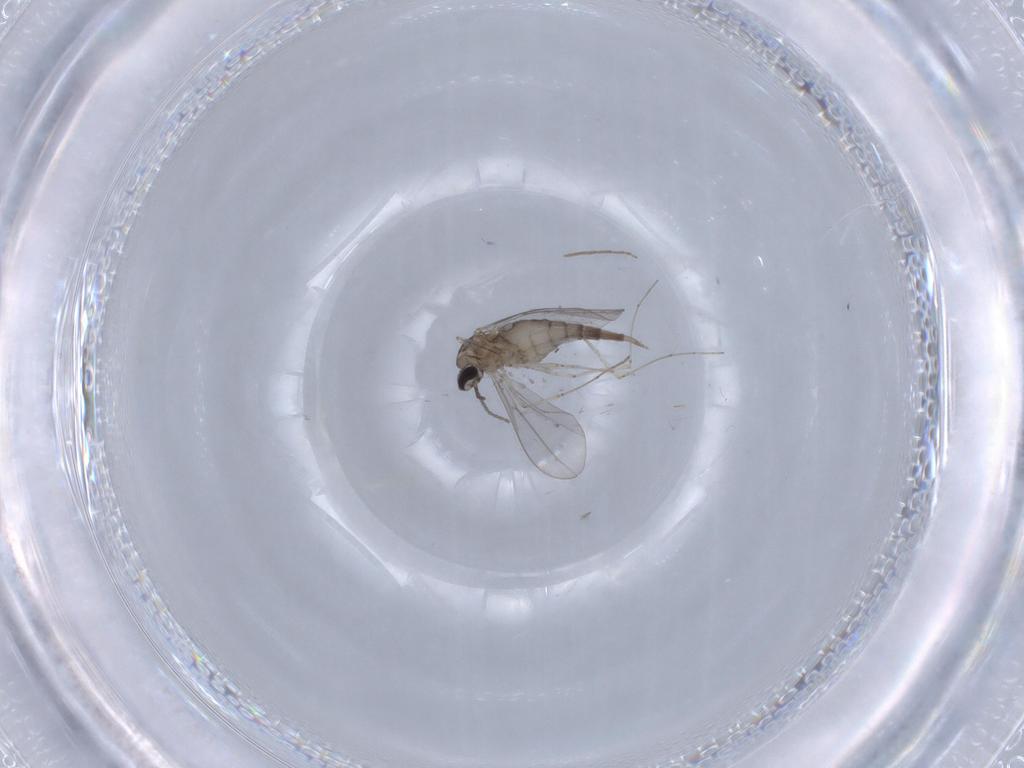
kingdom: Animalia
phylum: Arthropoda
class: Insecta
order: Diptera
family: Cecidomyiidae
